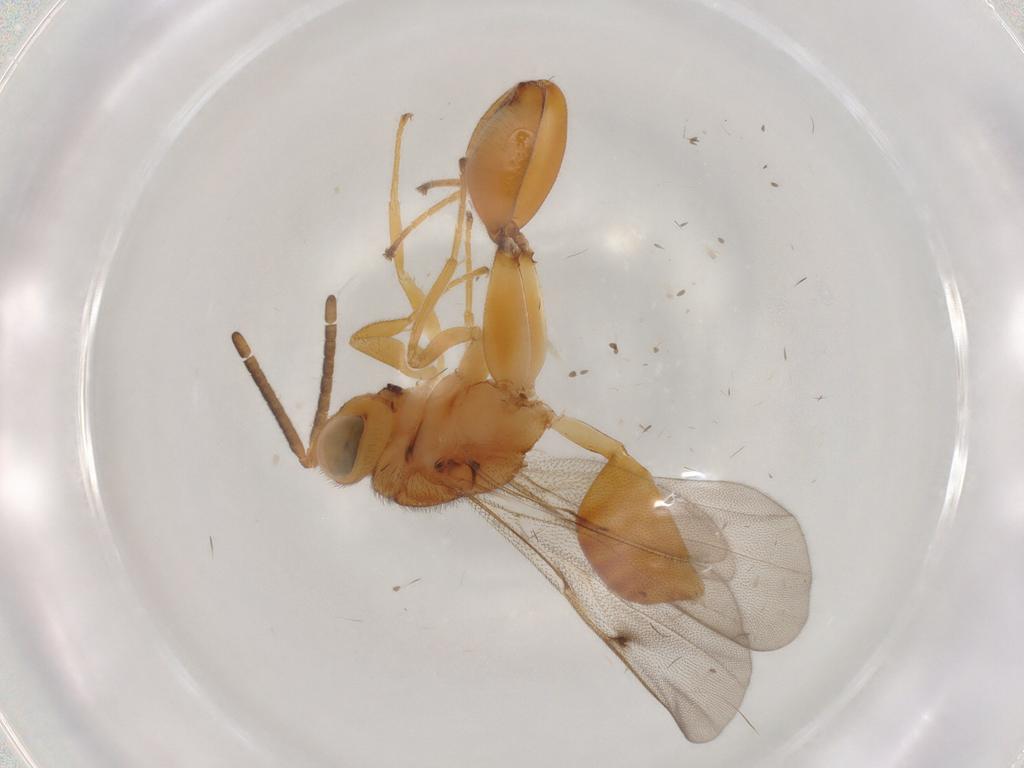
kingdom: Animalia
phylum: Arthropoda
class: Insecta
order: Hymenoptera
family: Chalcididae
